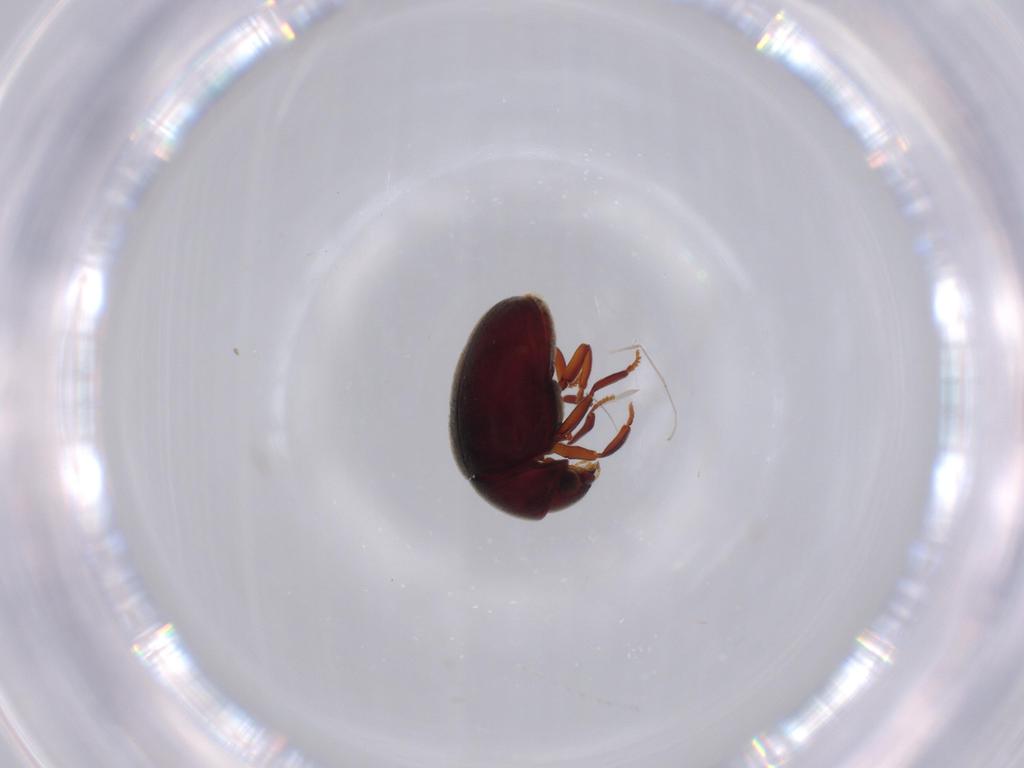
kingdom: Animalia
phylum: Arthropoda
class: Insecta
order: Coleoptera
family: Ptinidae
